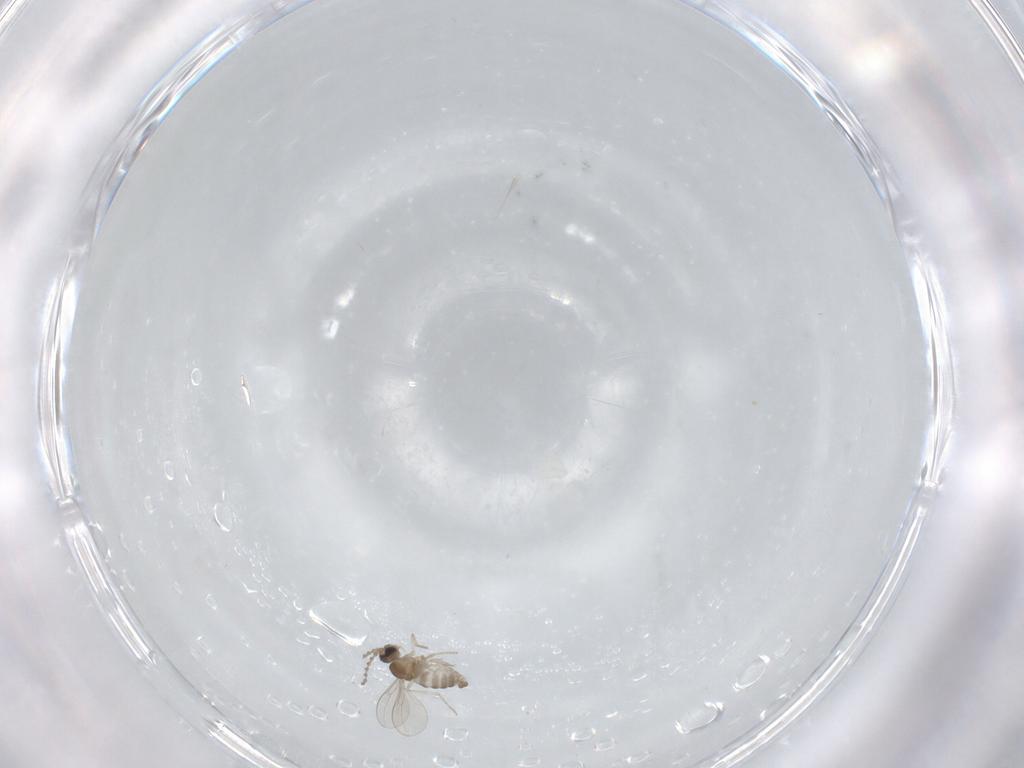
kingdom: Animalia
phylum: Arthropoda
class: Insecta
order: Diptera
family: Cecidomyiidae
